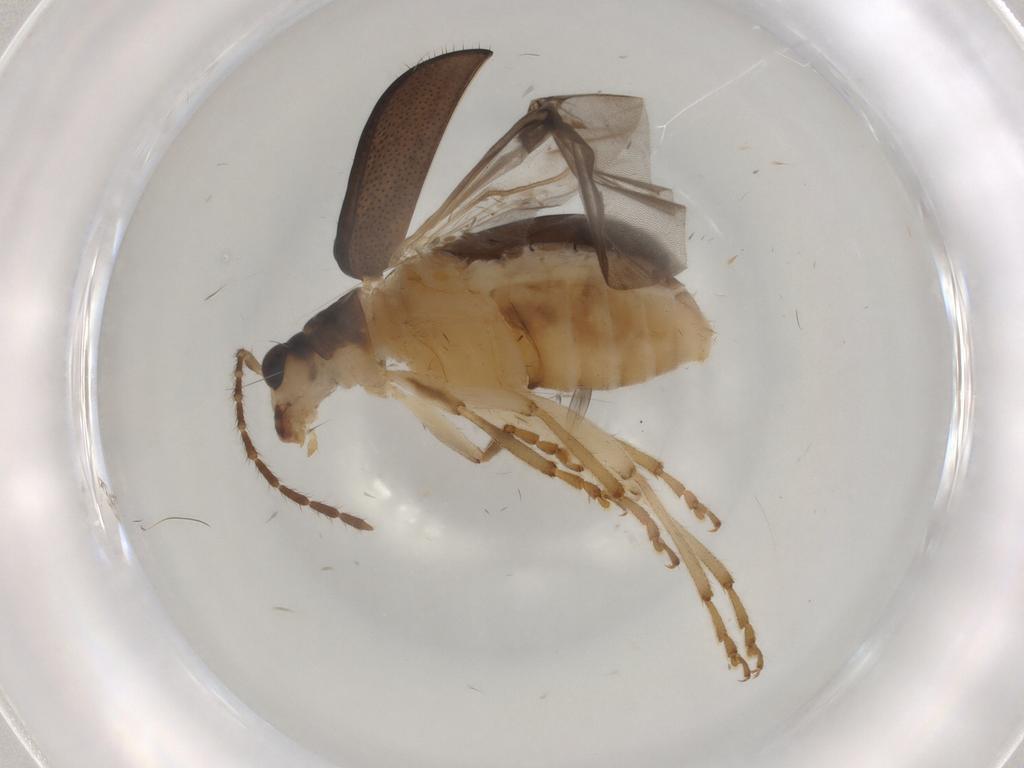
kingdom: Animalia
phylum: Arthropoda
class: Insecta
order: Coleoptera
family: Chrysomelidae
